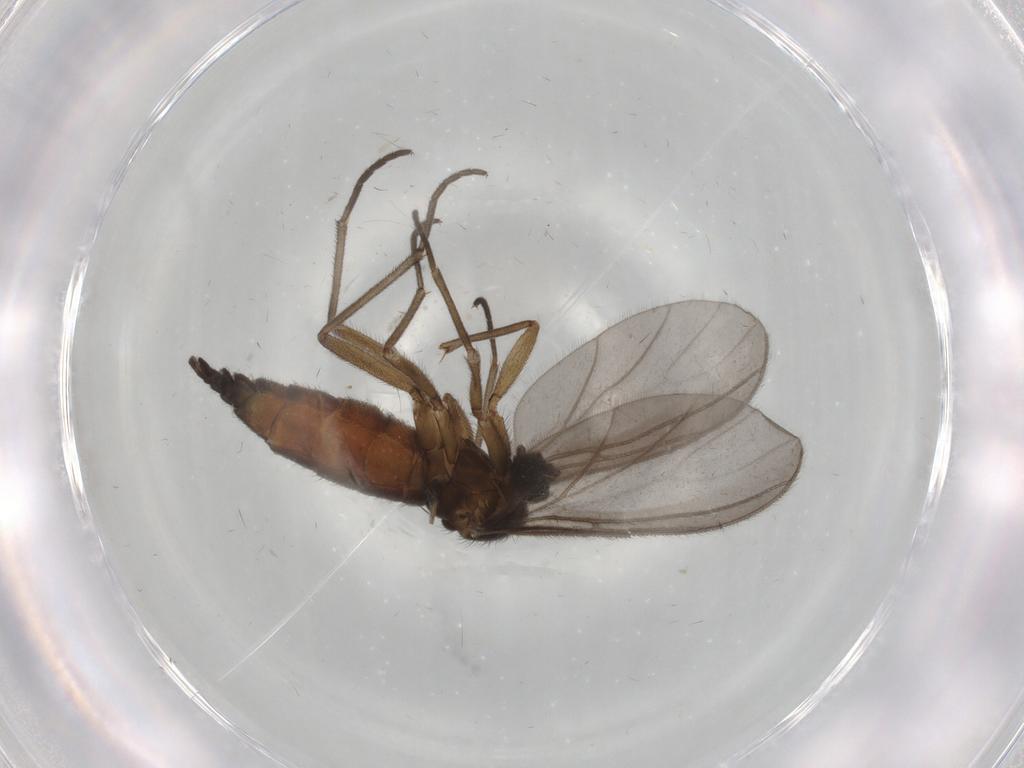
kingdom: Animalia
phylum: Arthropoda
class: Insecta
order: Diptera
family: Sciaridae
